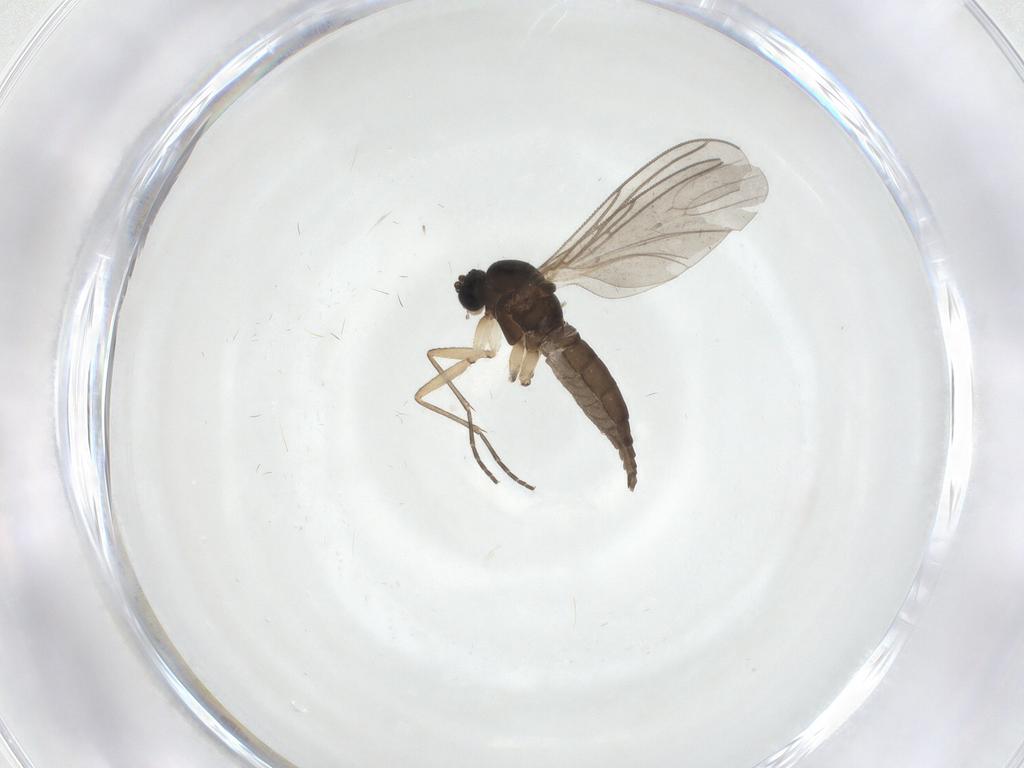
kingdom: Animalia
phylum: Arthropoda
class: Insecta
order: Diptera
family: Sciaridae
